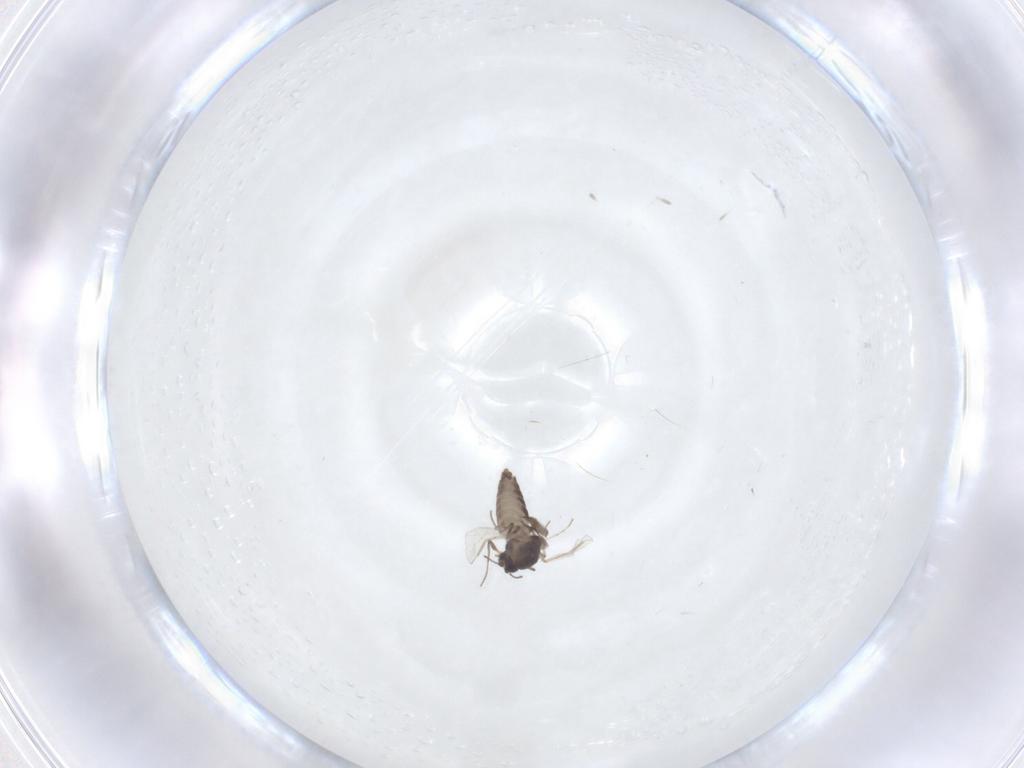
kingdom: Animalia
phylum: Arthropoda
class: Insecta
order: Diptera
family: Chironomidae
